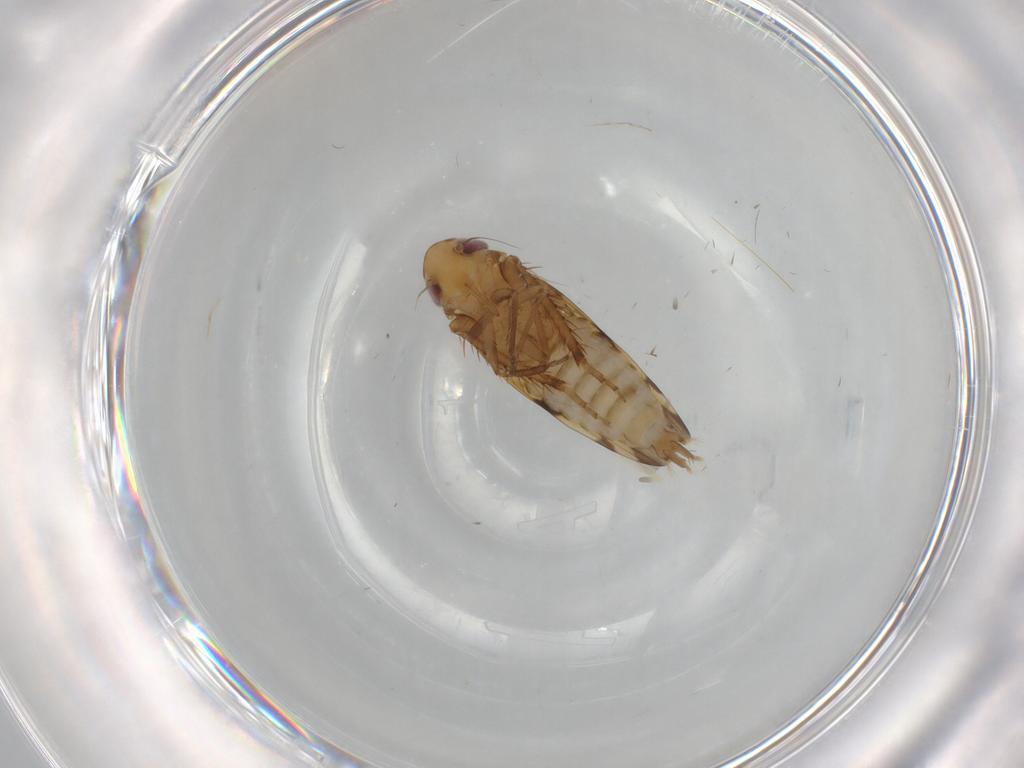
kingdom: Animalia
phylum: Arthropoda
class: Insecta
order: Hemiptera
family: Cicadellidae
